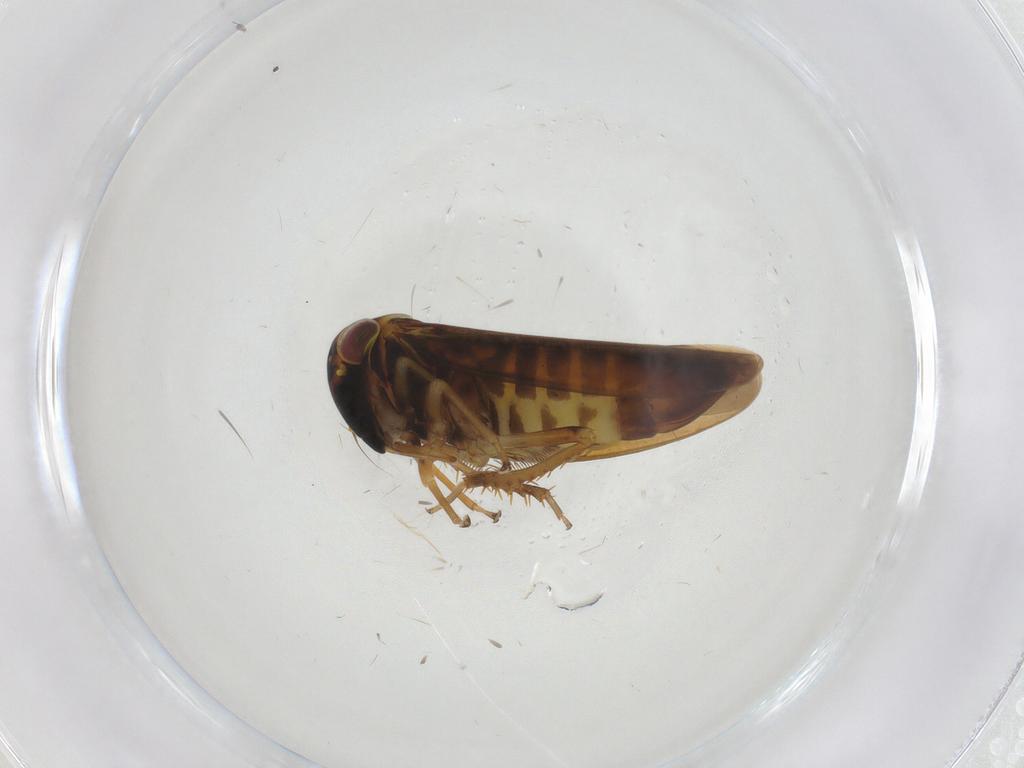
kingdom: Animalia
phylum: Arthropoda
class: Insecta
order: Hemiptera
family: Cicadellidae
